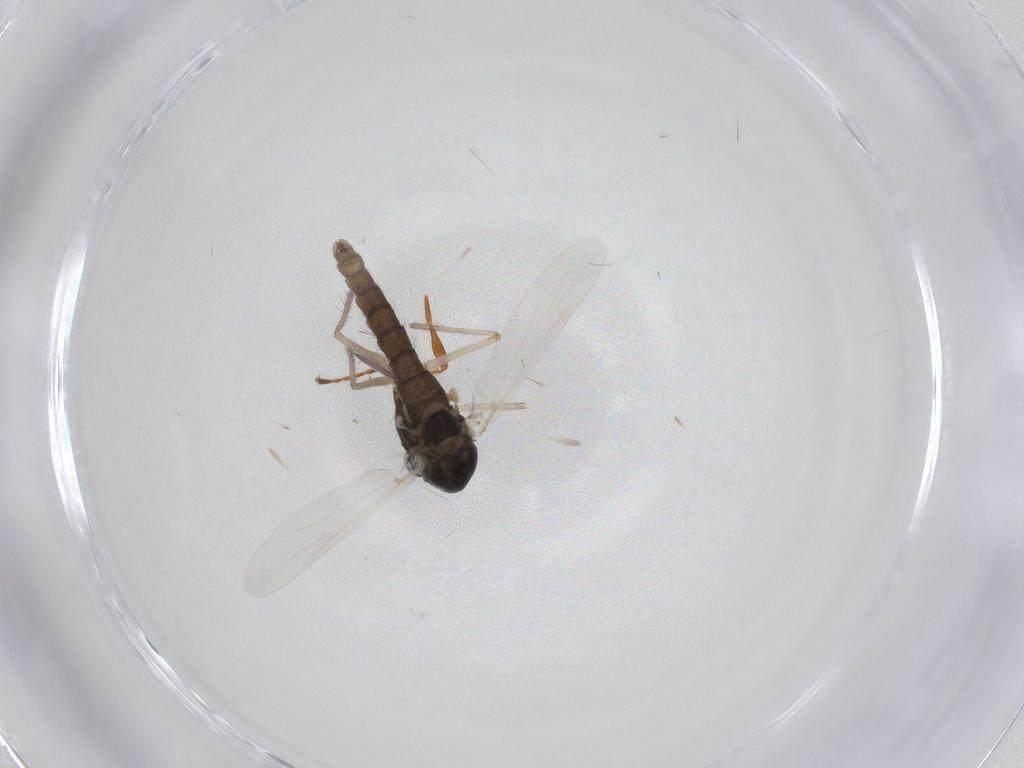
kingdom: Animalia
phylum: Arthropoda
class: Insecta
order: Diptera
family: Chironomidae
